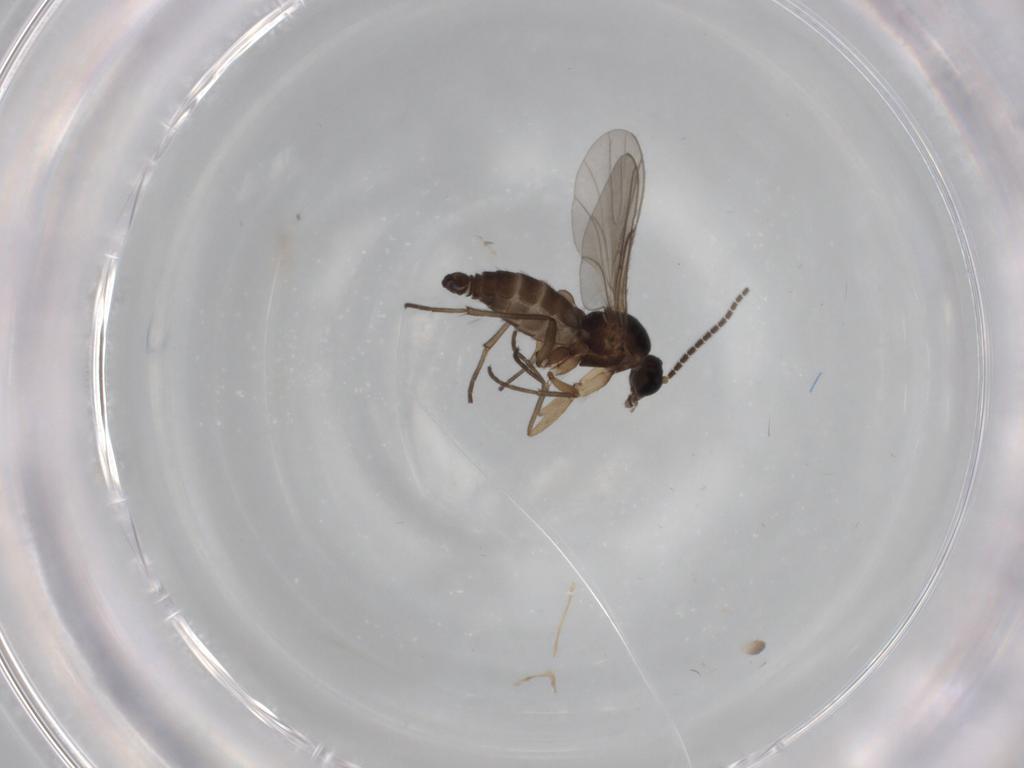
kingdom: Animalia
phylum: Arthropoda
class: Insecta
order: Diptera
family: Sciaridae
